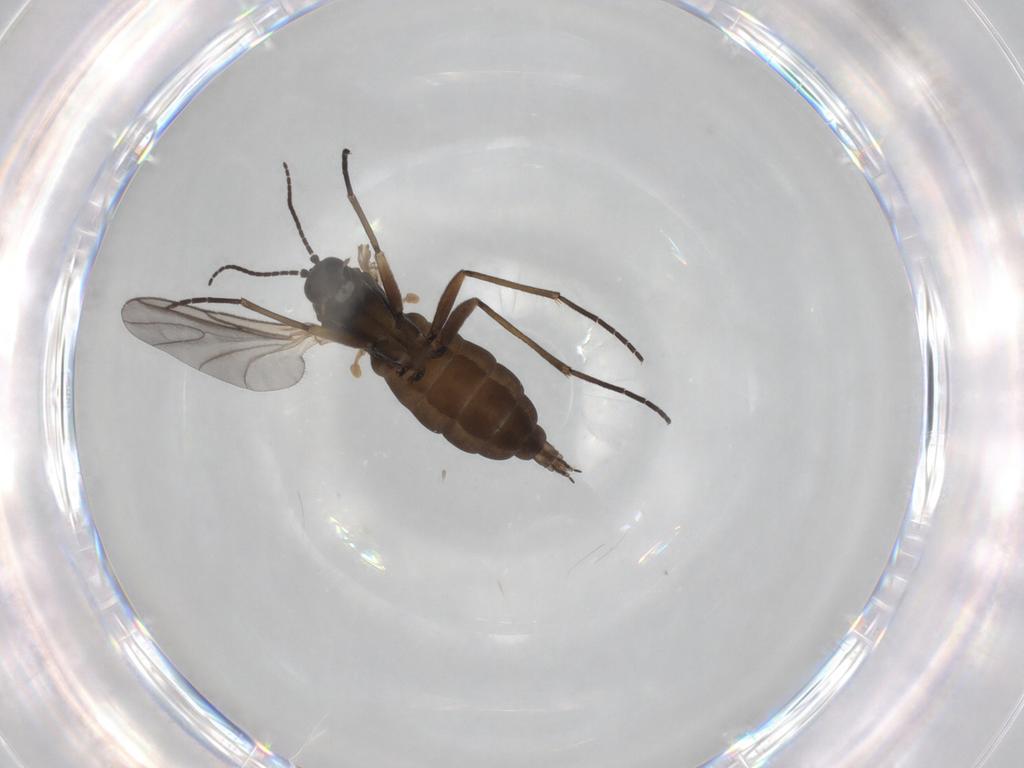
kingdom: Animalia
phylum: Arthropoda
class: Insecta
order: Diptera
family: Sciaridae
